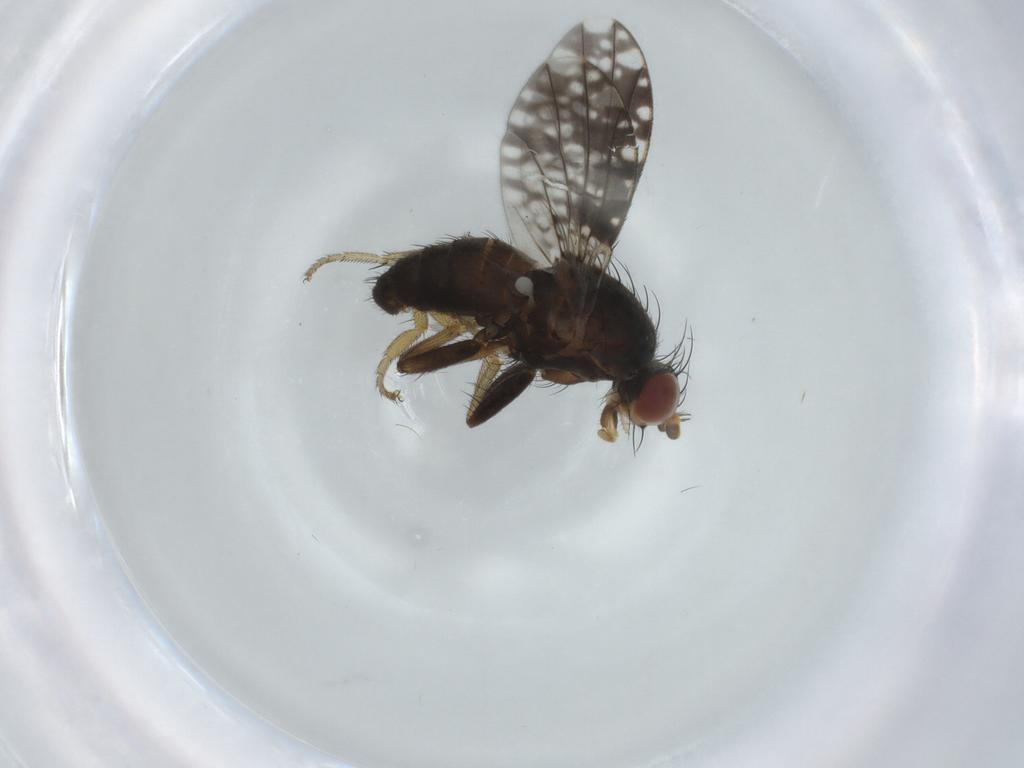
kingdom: Animalia
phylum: Arthropoda
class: Insecta
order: Diptera
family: Tephritidae
